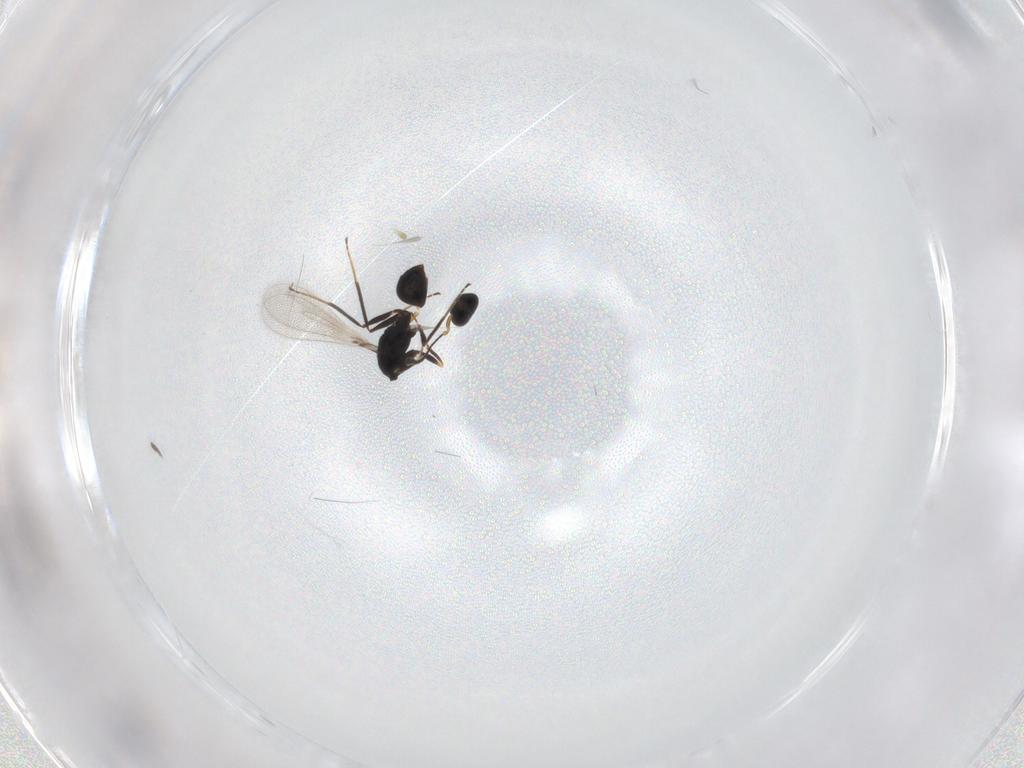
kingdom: Animalia
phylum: Arthropoda
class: Insecta
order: Hymenoptera
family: Mymaridae
